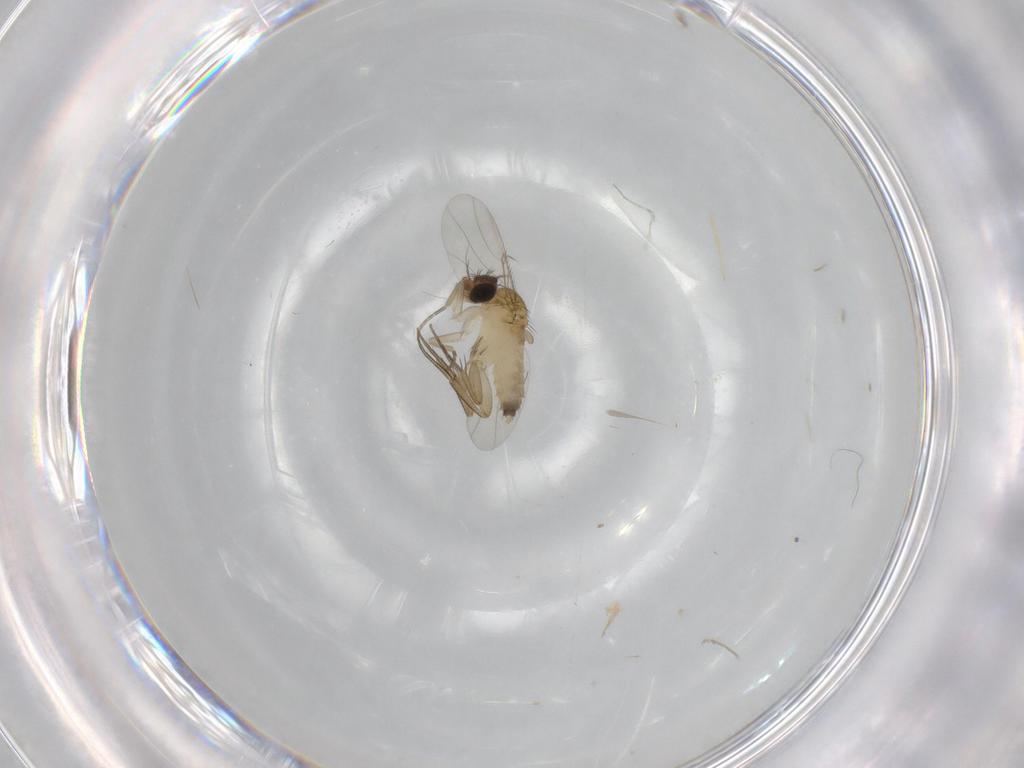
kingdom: Animalia
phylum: Arthropoda
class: Insecta
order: Diptera
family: Phoridae
